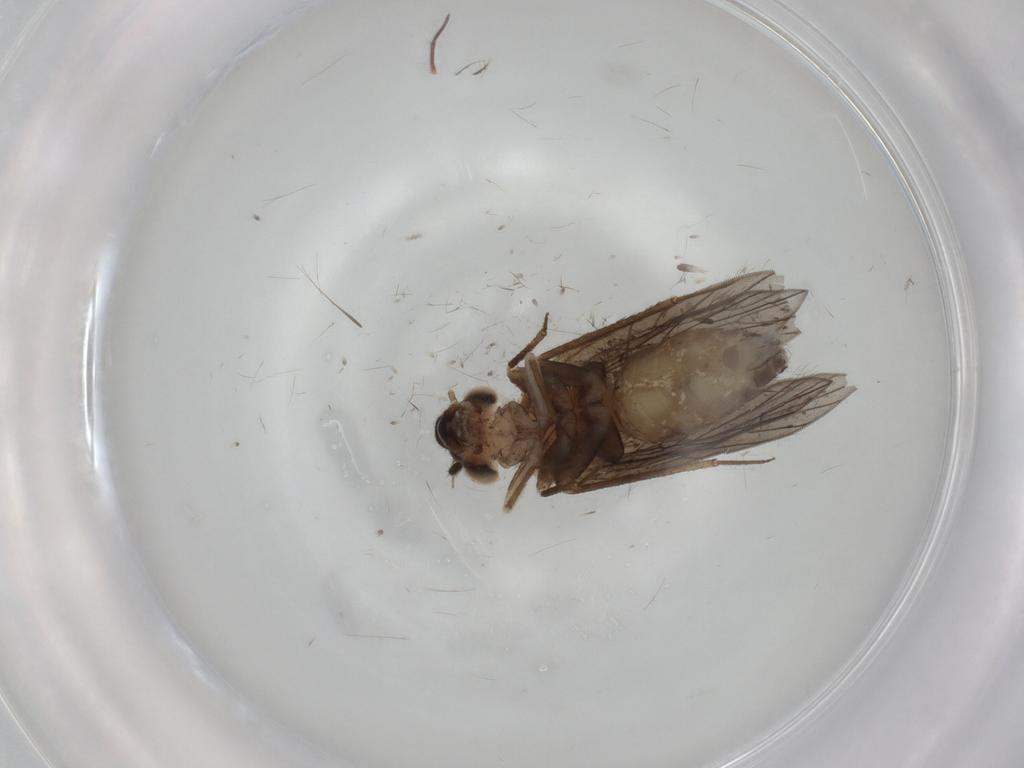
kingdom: Animalia
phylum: Arthropoda
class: Insecta
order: Psocodea
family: Lepidopsocidae
